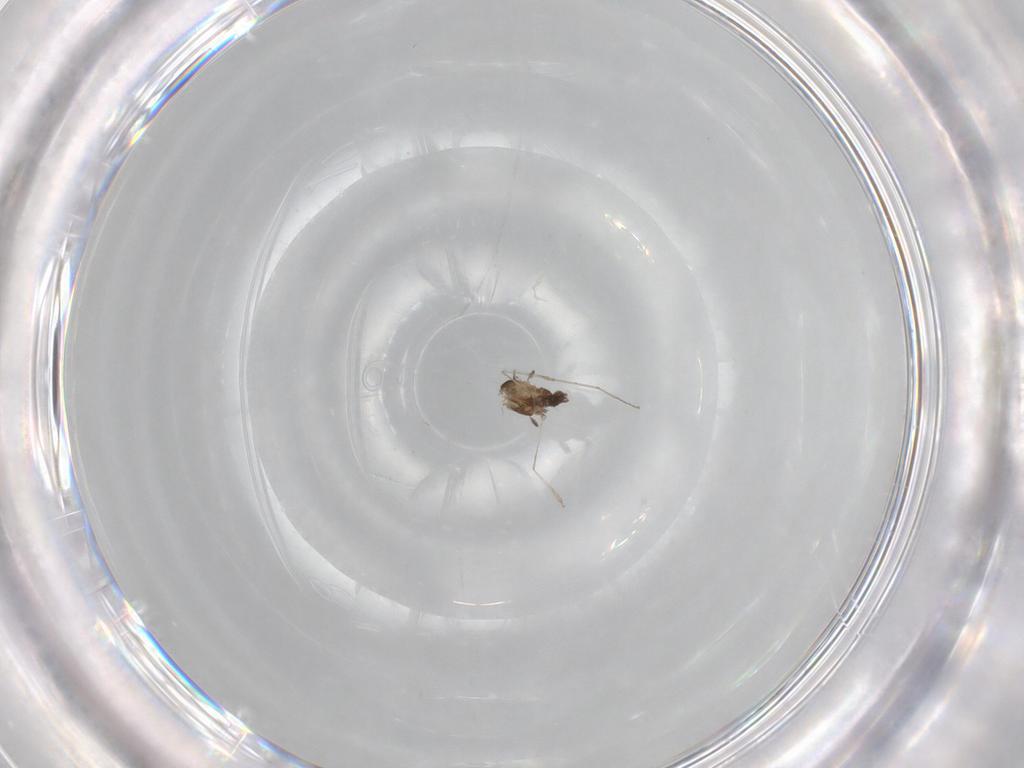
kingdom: Animalia
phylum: Arthropoda
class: Insecta
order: Diptera
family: Cecidomyiidae
